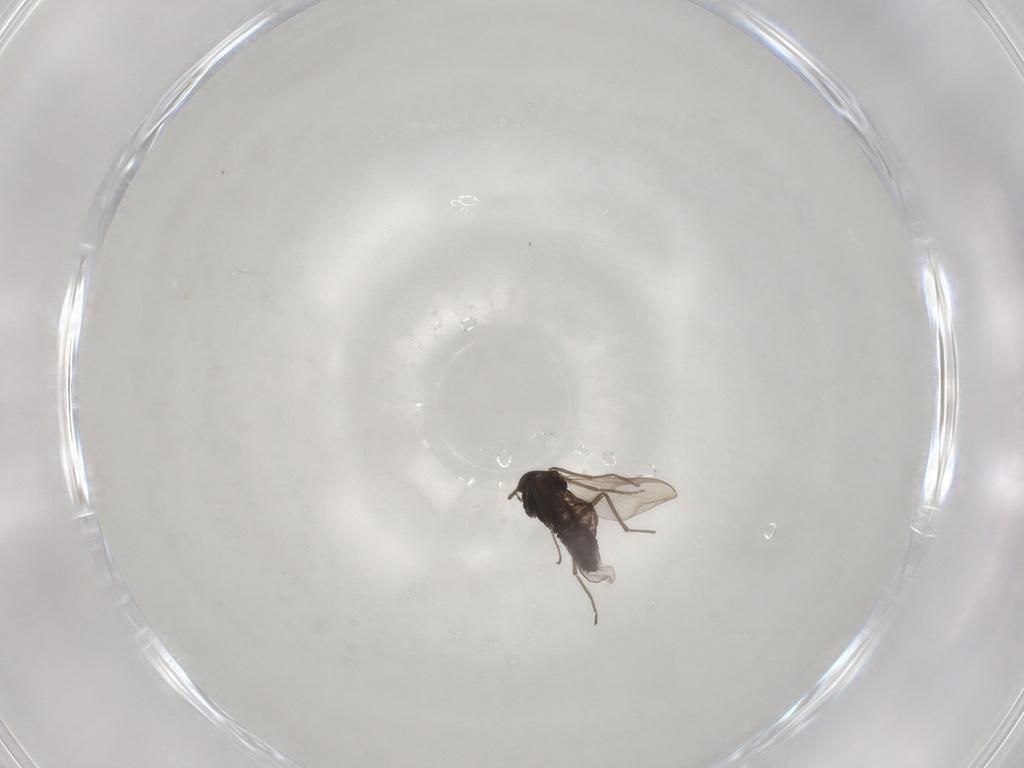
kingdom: Animalia
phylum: Arthropoda
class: Insecta
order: Diptera
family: Chironomidae
